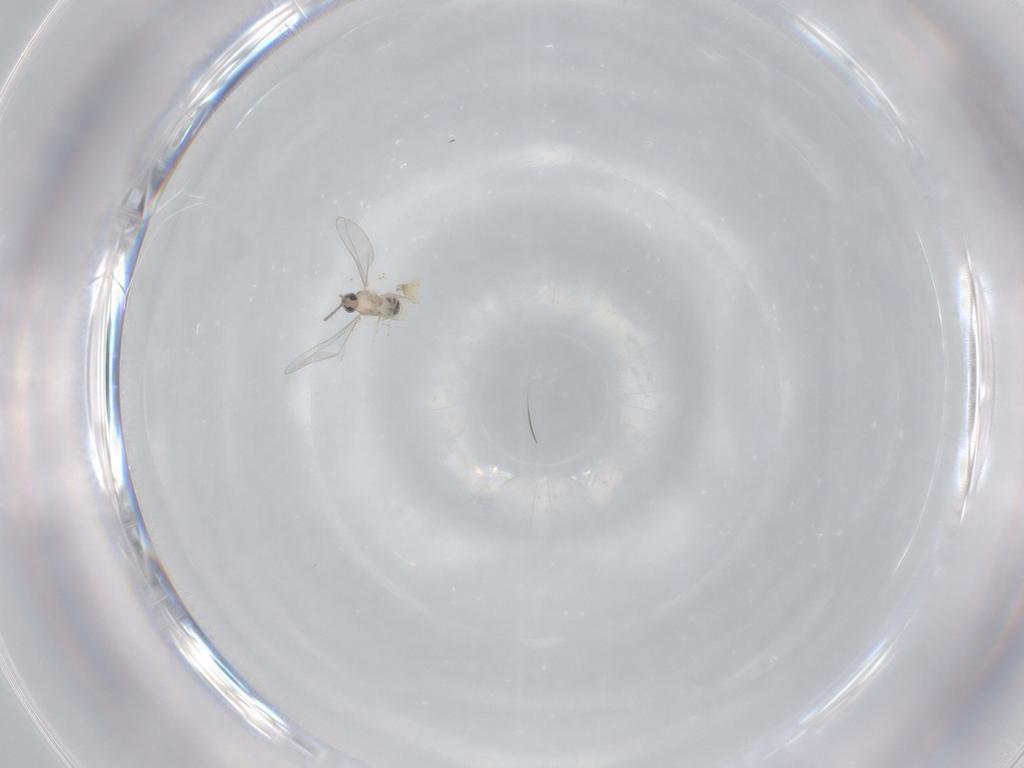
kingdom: Animalia
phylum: Arthropoda
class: Insecta
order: Diptera
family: Cecidomyiidae
